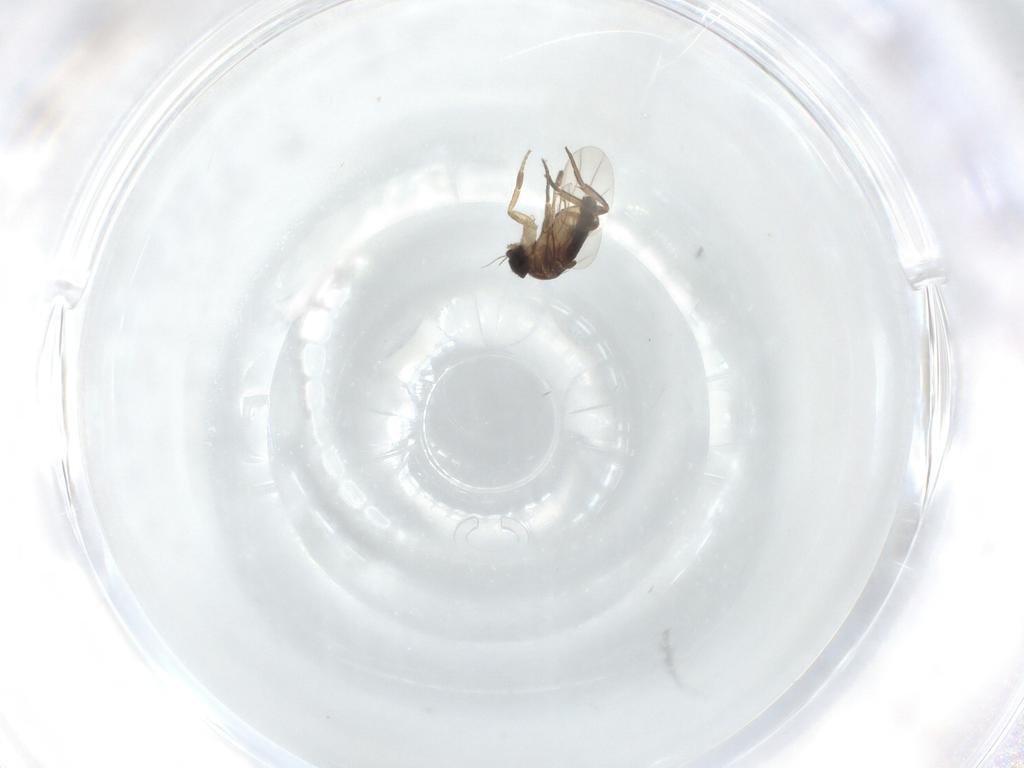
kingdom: Animalia
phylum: Arthropoda
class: Insecta
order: Diptera
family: Phoridae
